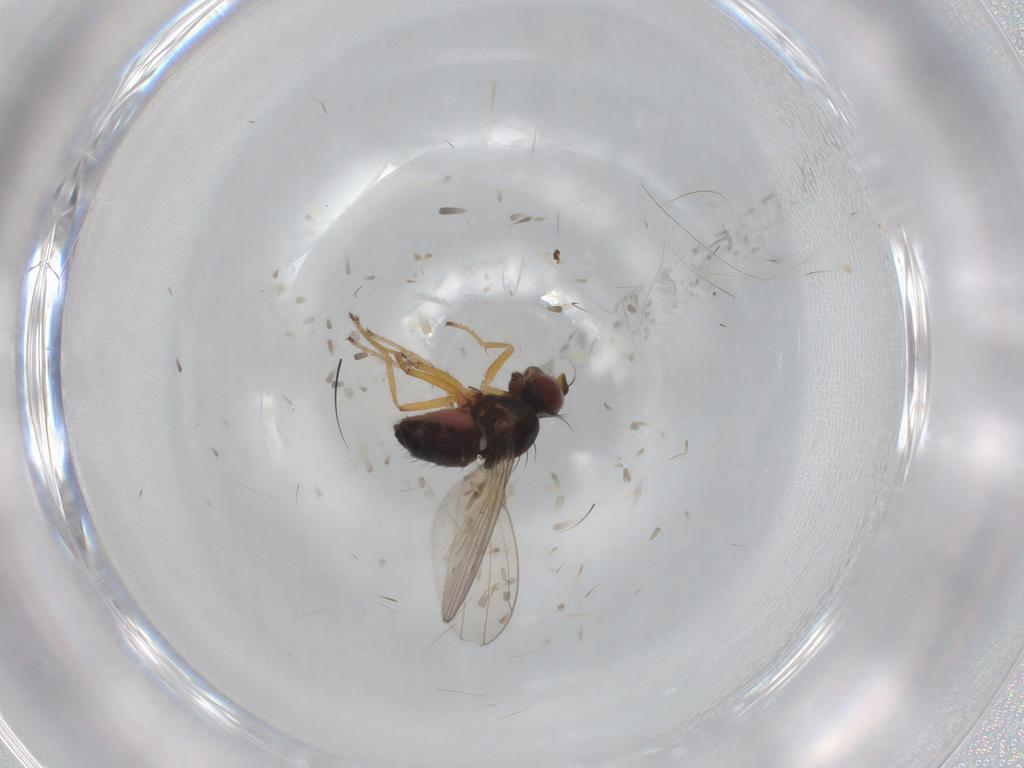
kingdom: Animalia
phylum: Arthropoda
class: Insecta
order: Diptera
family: Ephydridae
